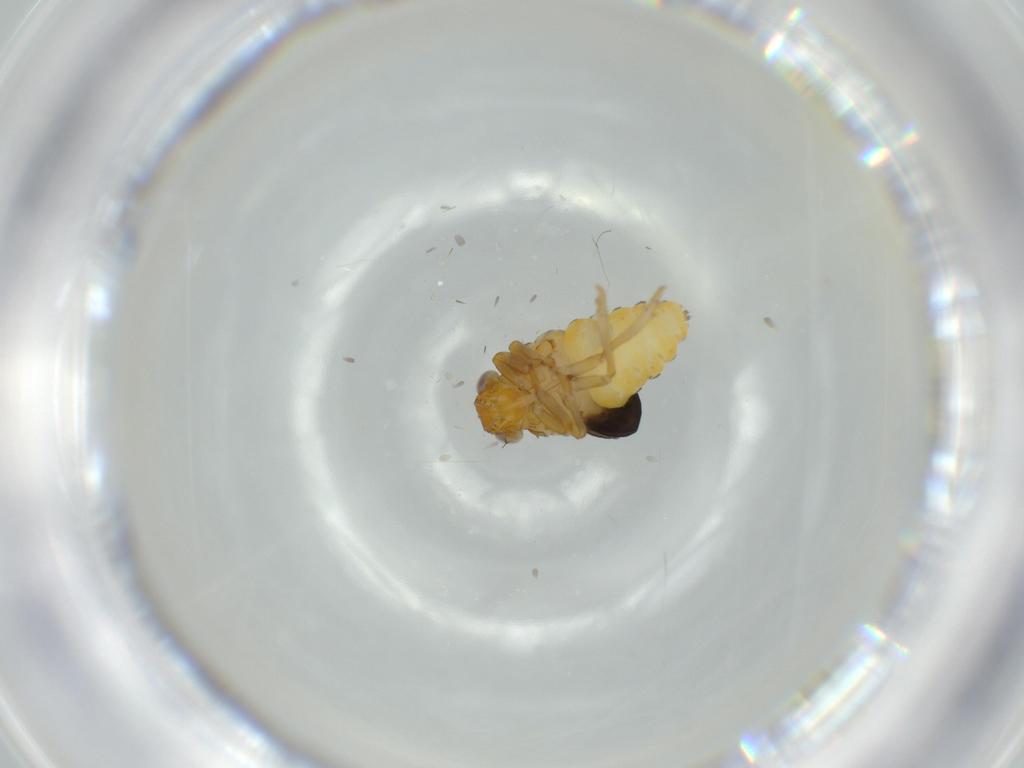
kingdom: Animalia
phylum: Arthropoda
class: Insecta
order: Hemiptera
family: Issidae
